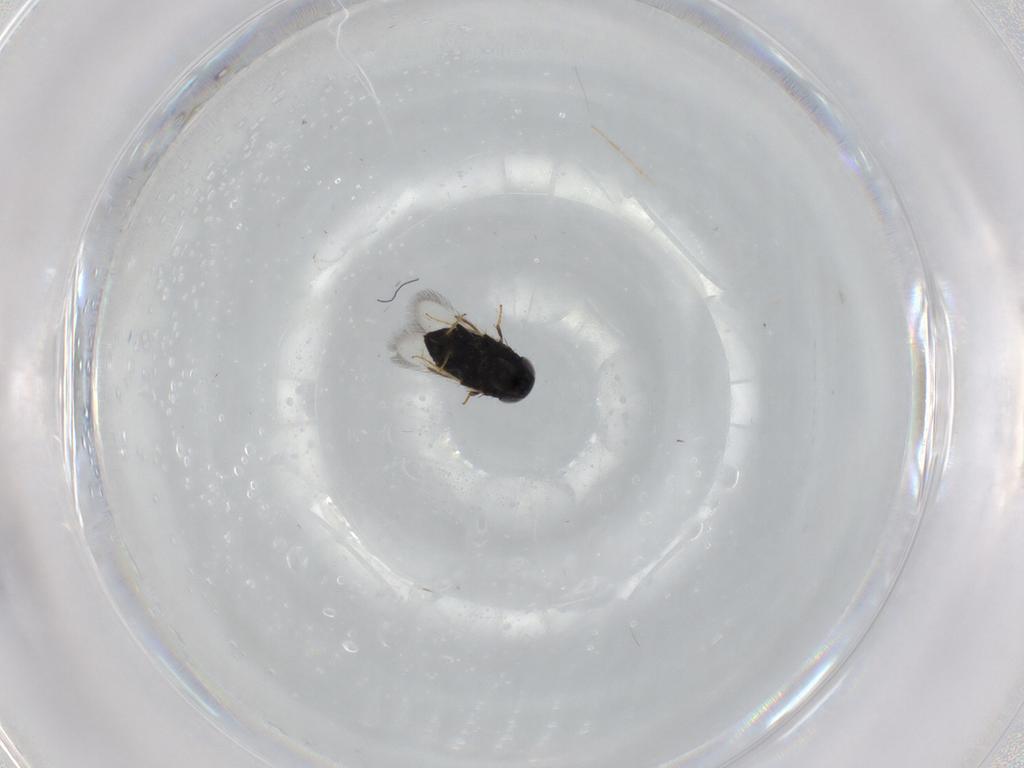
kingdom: Animalia
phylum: Arthropoda
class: Insecta
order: Hymenoptera
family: Signiphoridae
